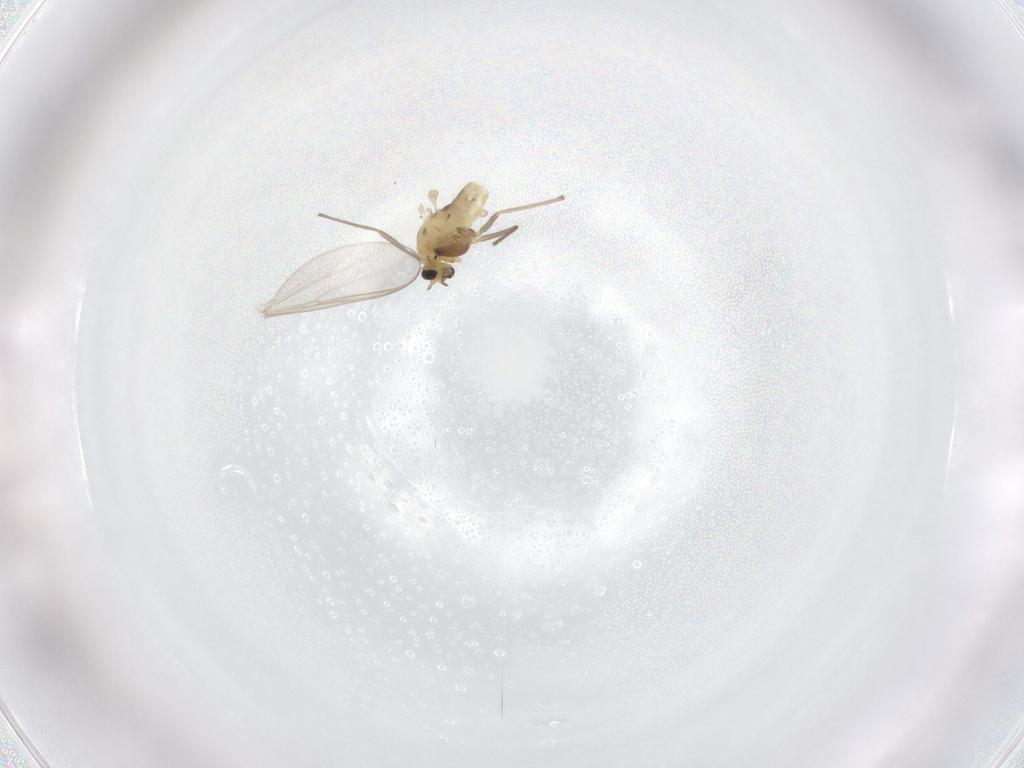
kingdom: Animalia
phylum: Arthropoda
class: Insecta
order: Diptera
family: Chironomidae
